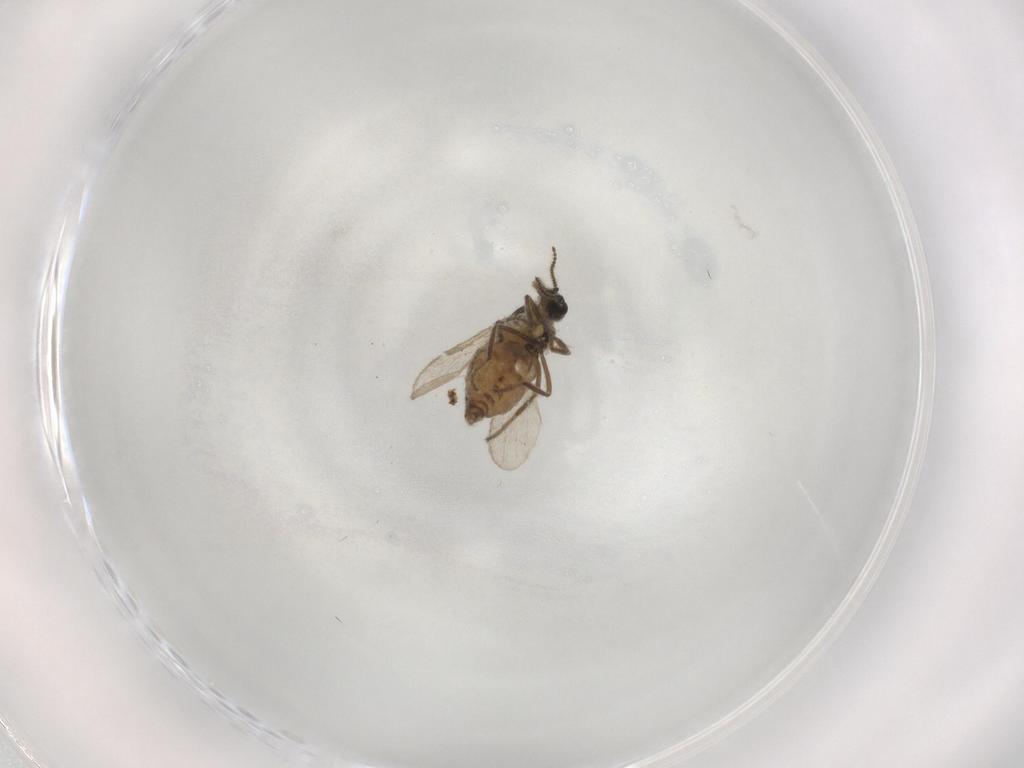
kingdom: Animalia
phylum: Arthropoda
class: Insecta
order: Diptera
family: Ceratopogonidae
